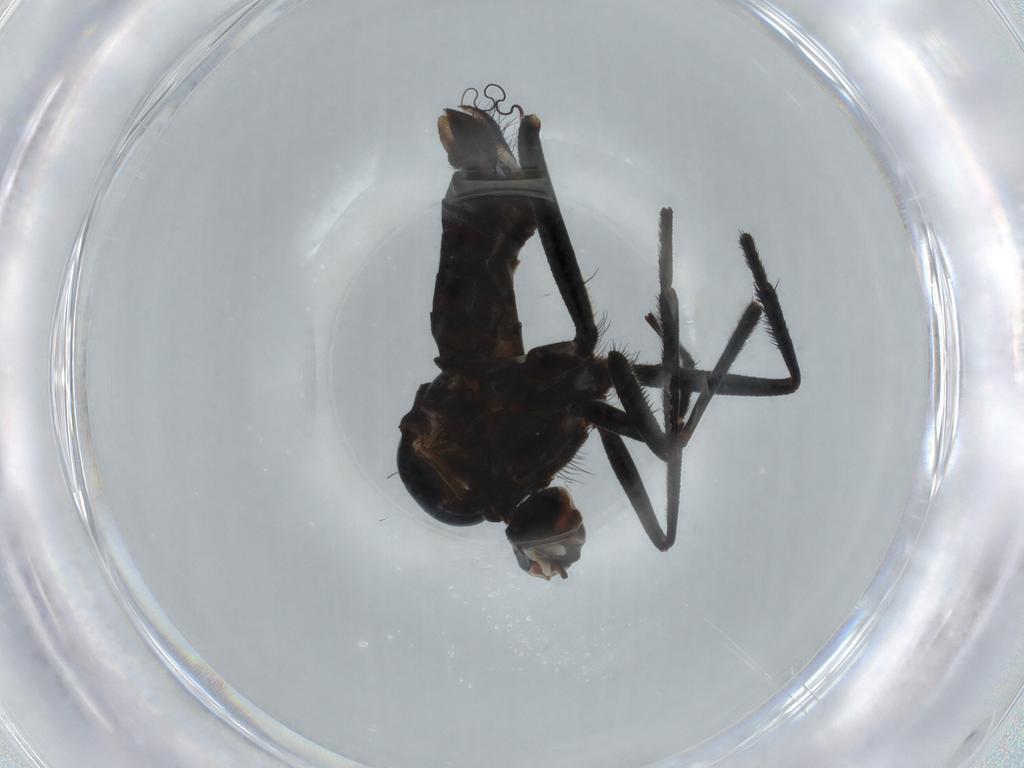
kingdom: Animalia
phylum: Arthropoda
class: Insecta
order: Diptera
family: Empididae
